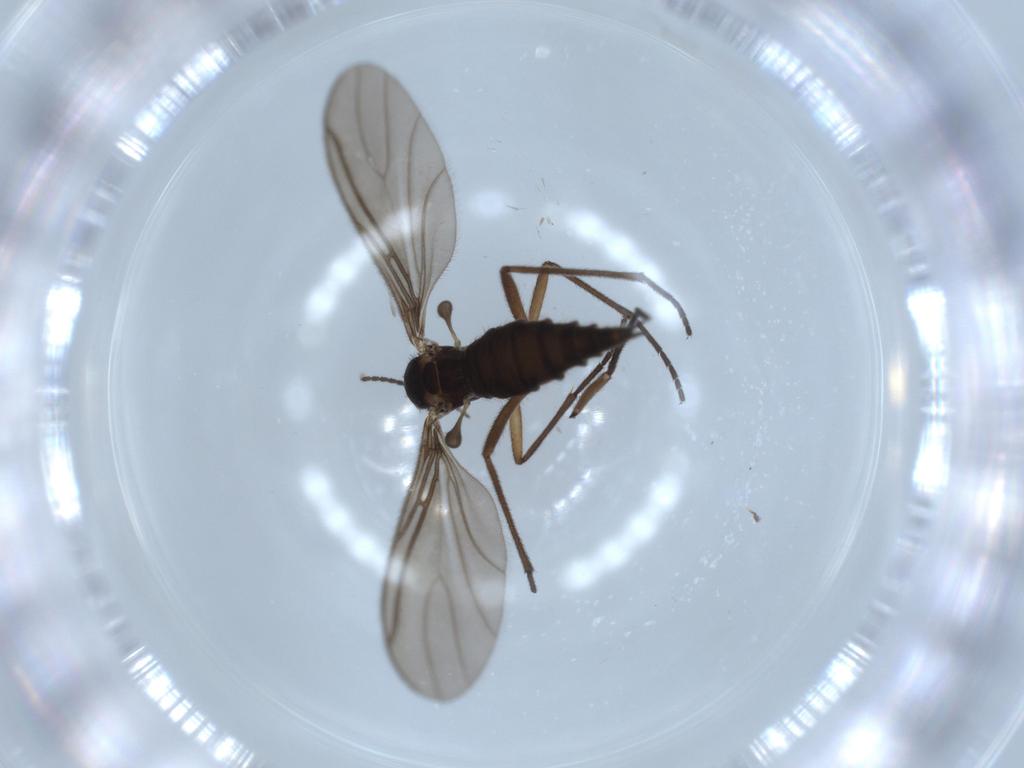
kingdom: Animalia
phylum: Arthropoda
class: Insecta
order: Diptera
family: Sciaridae
